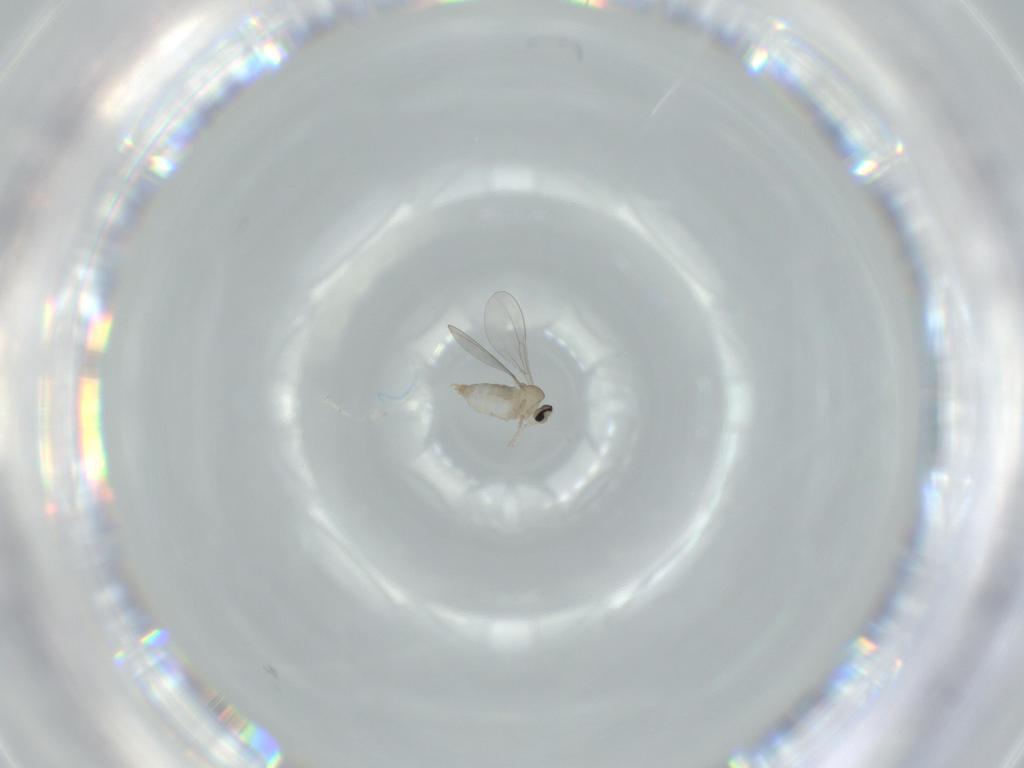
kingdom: Animalia
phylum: Arthropoda
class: Insecta
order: Diptera
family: Cecidomyiidae
